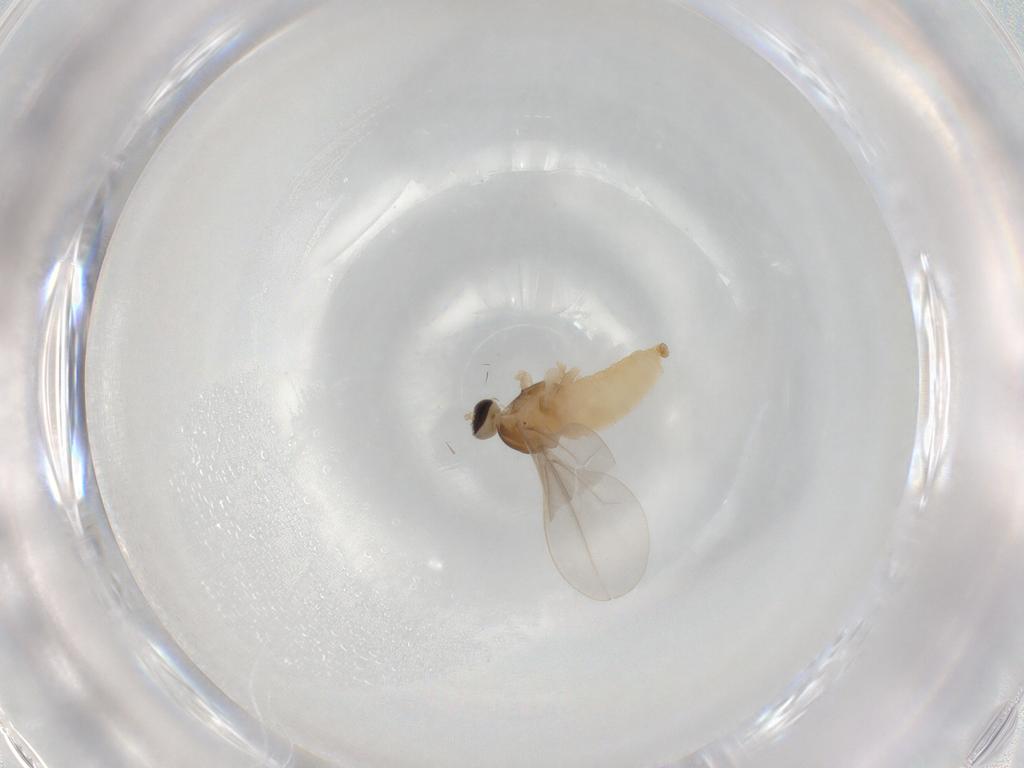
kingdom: Animalia
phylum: Arthropoda
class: Insecta
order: Diptera
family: Cecidomyiidae
